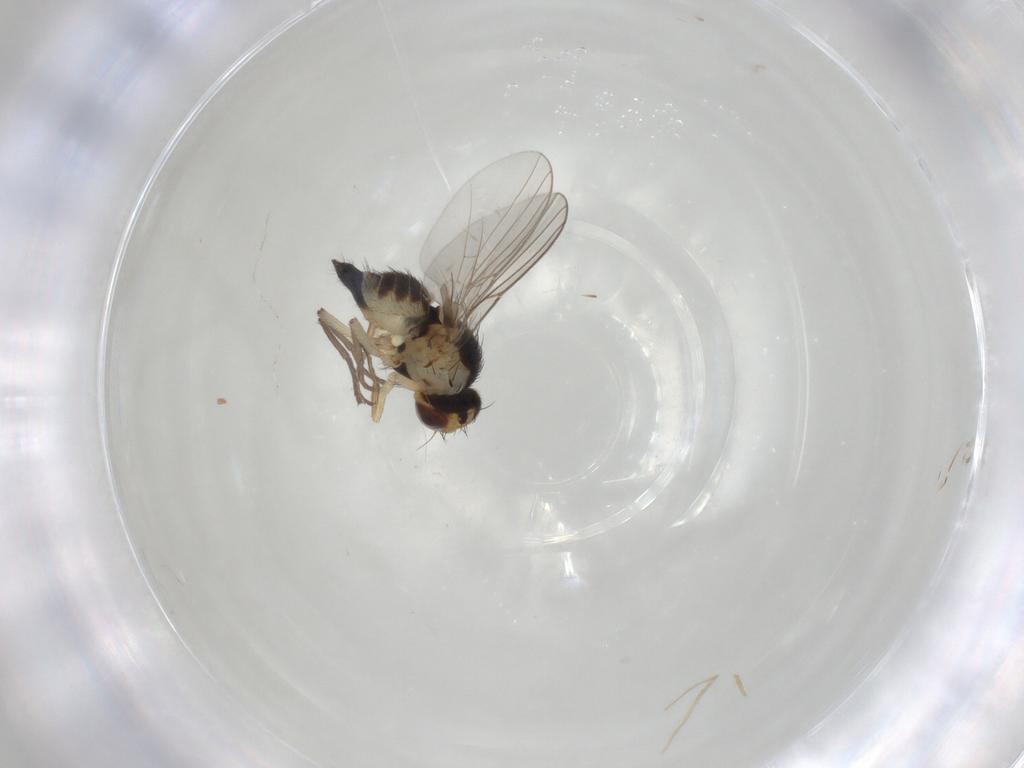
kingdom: Animalia
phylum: Arthropoda
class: Insecta
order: Diptera
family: Agromyzidae
